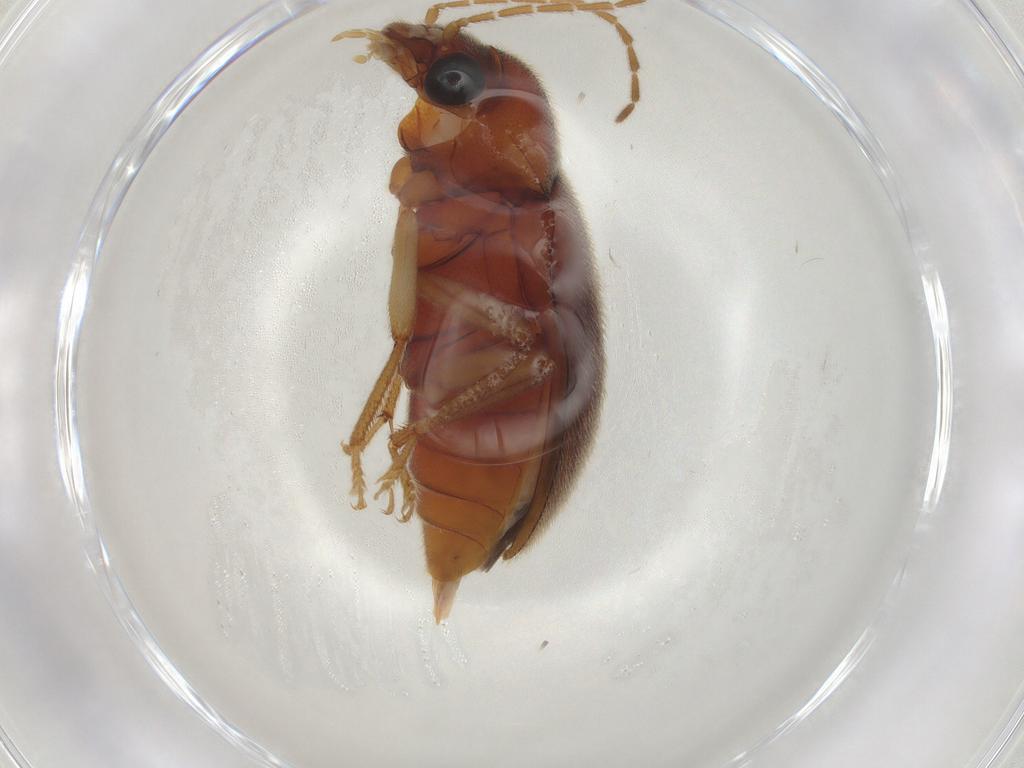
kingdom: Animalia
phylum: Arthropoda
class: Insecta
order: Coleoptera
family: Ptilodactylidae
